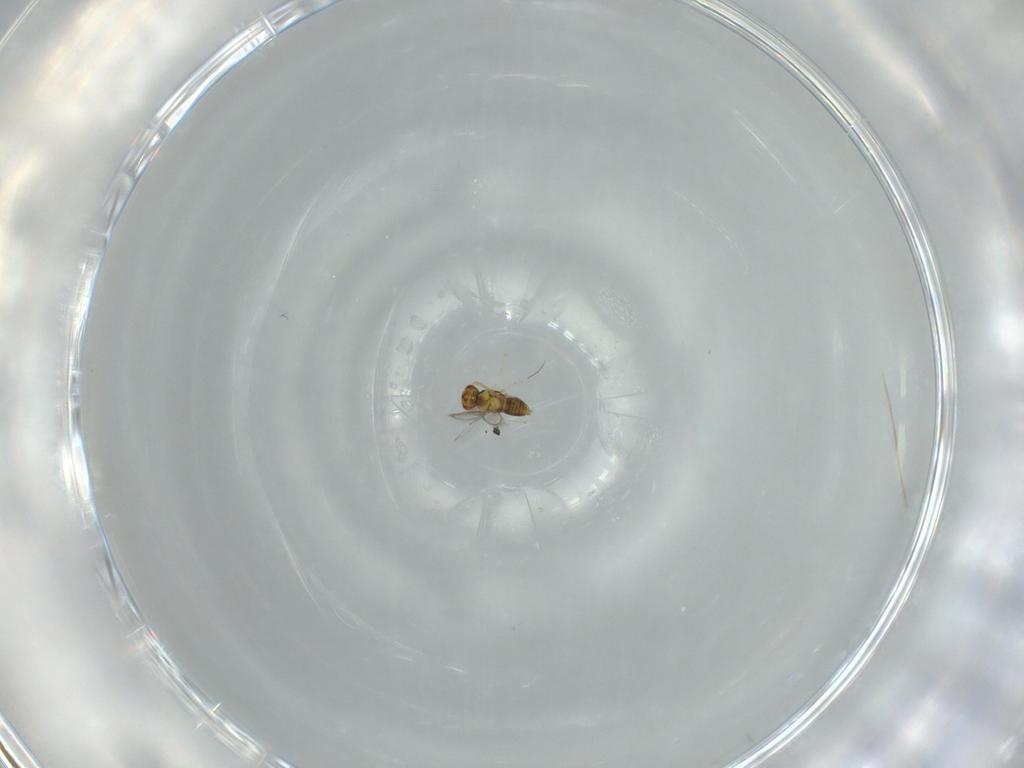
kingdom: Animalia
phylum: Arthropoda
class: Insecta
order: Hymenoptera
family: Aphelinidae
